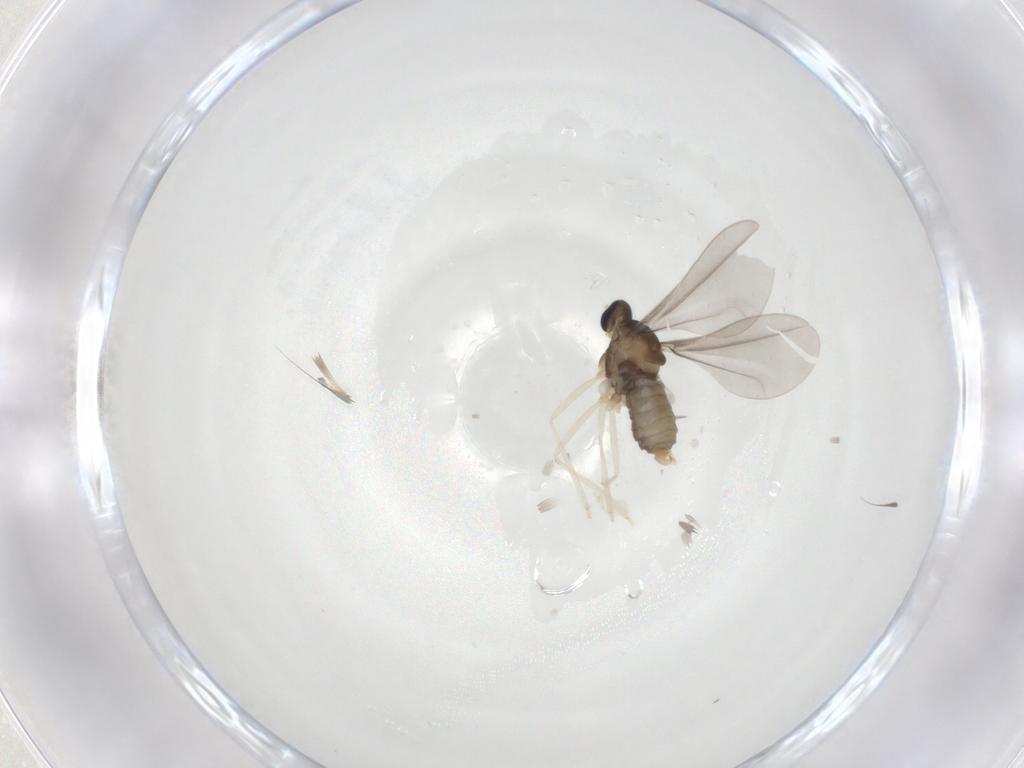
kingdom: Animalia
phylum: Arthropoda
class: Insecta
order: Diptera
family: Cecidomyiidae
